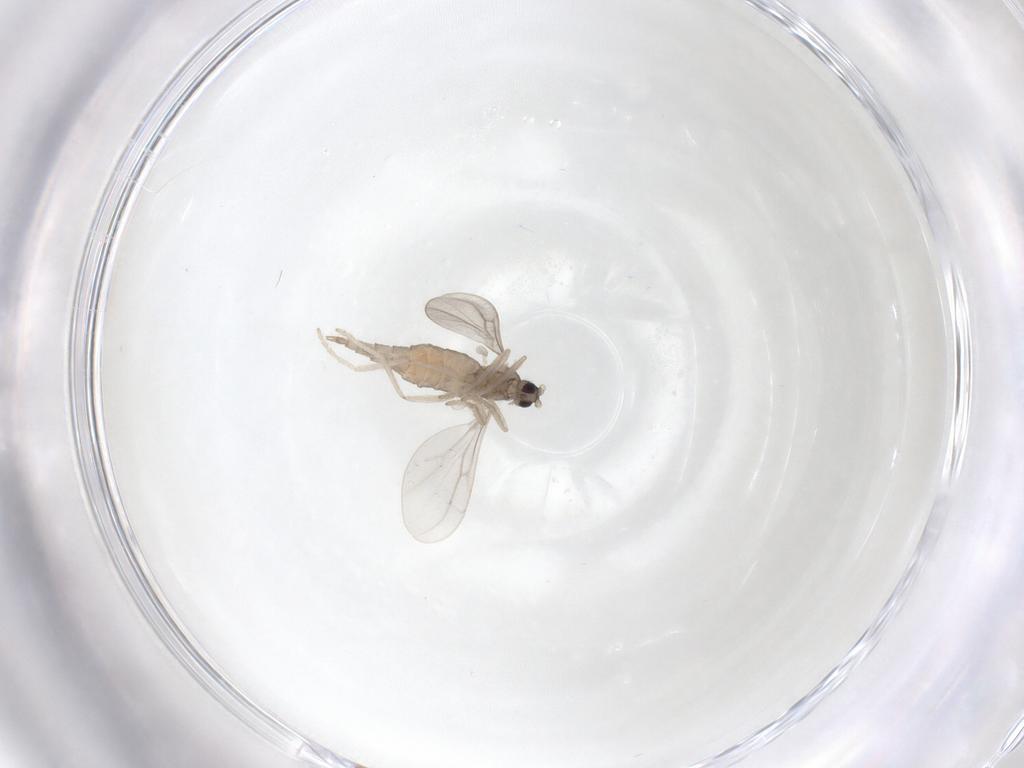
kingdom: Animalia
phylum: Arthropoda
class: Insecta
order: Diptera
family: Cecidomyiidae
